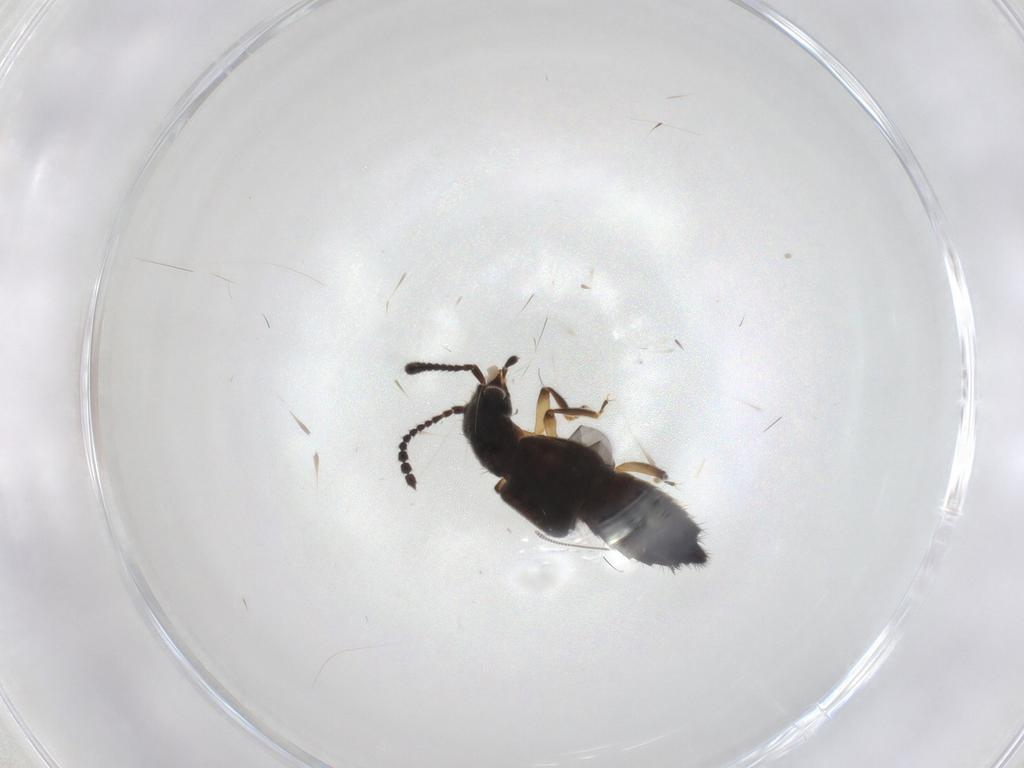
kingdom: Animalia
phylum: Arthropoda
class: Insecta
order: Coleoptera
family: Staphylinidae
